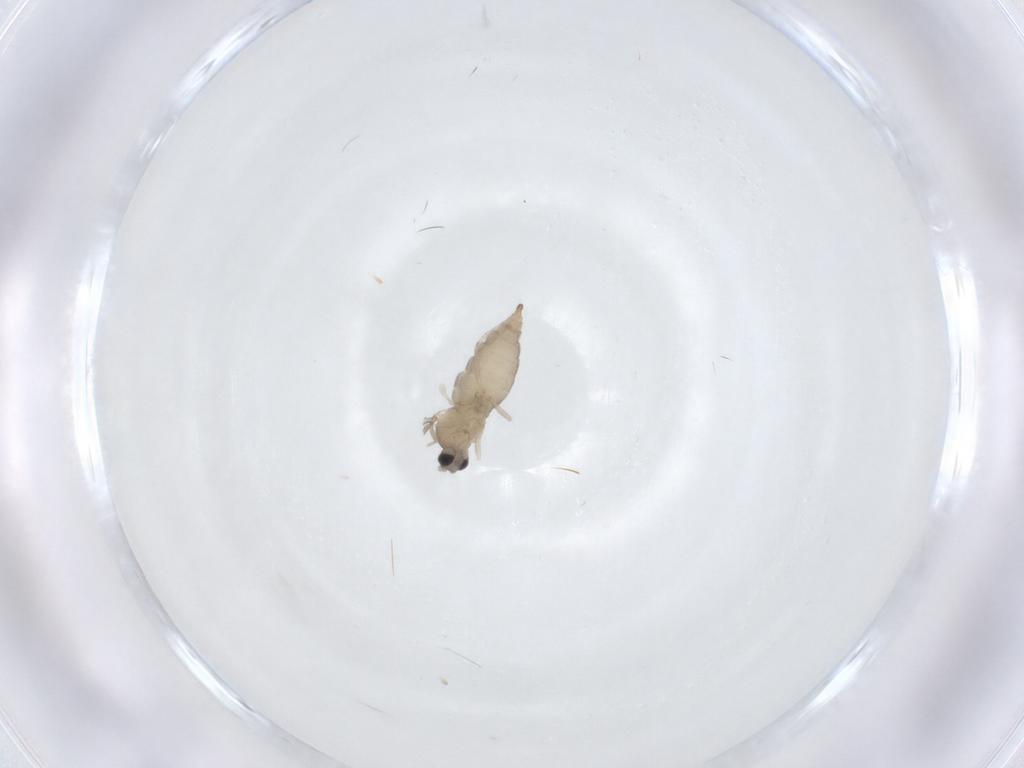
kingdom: Animalia
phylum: Arthropoda
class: Insecta
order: Diptera
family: Cecidomyiidae
